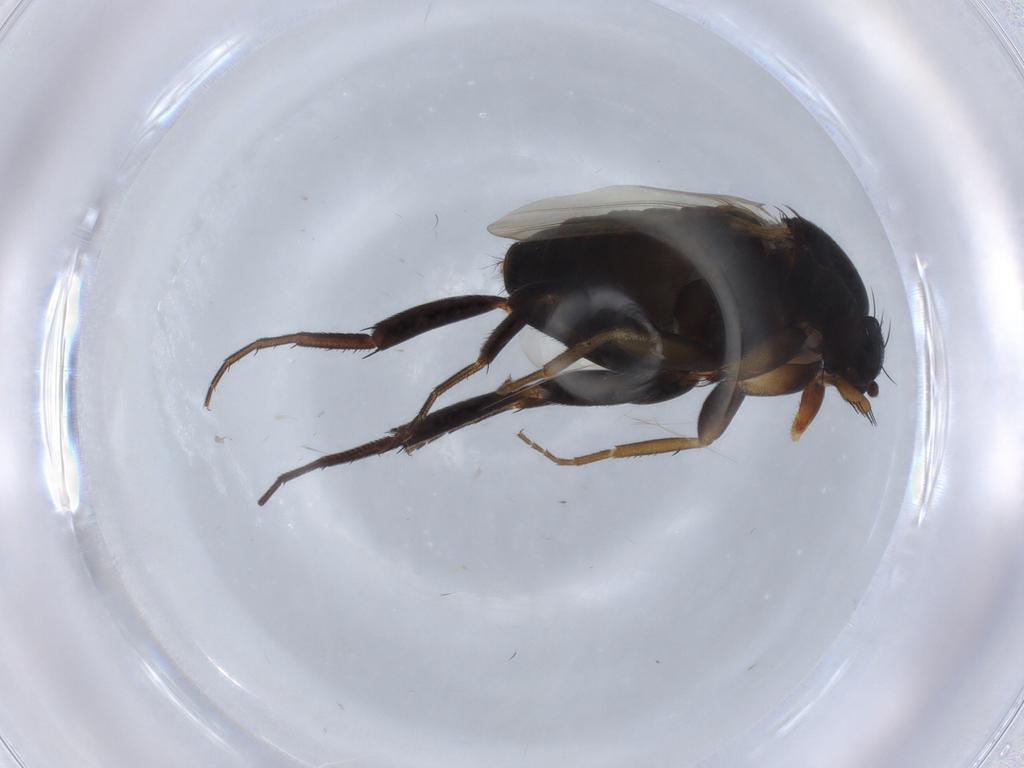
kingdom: Animalia
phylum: Arthropoda
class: Insecta
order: Diptera
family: Phoridae
